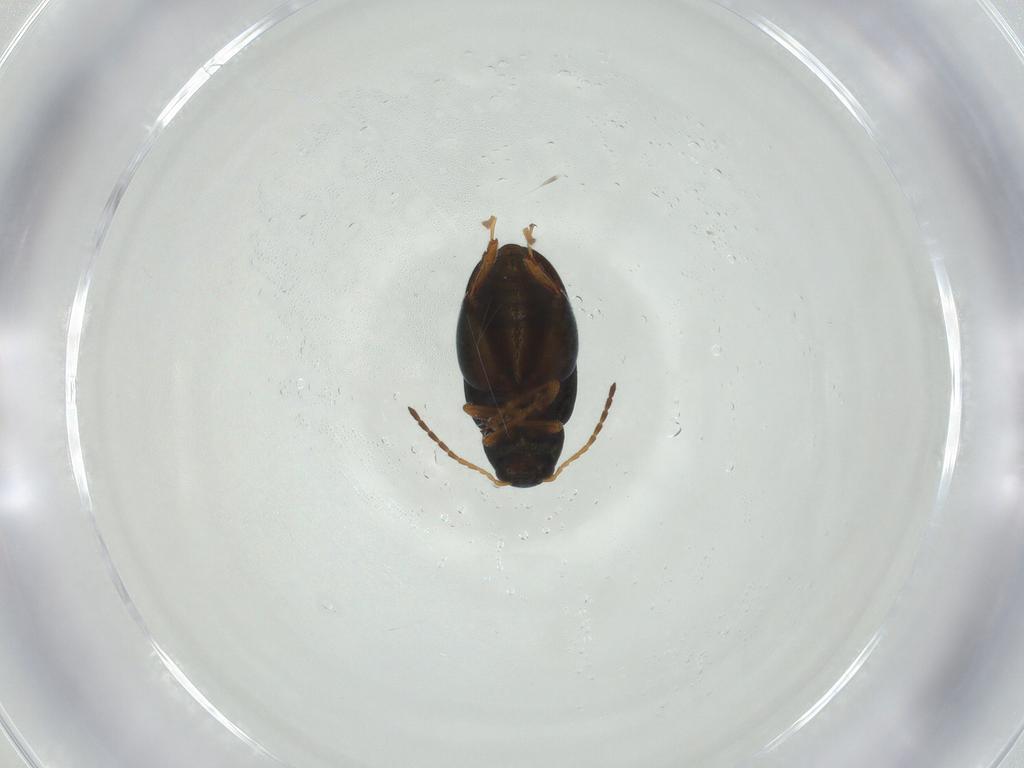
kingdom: Animalia
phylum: Arthropoda
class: Insecta
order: Coleoptera
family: Chrysomelidae
